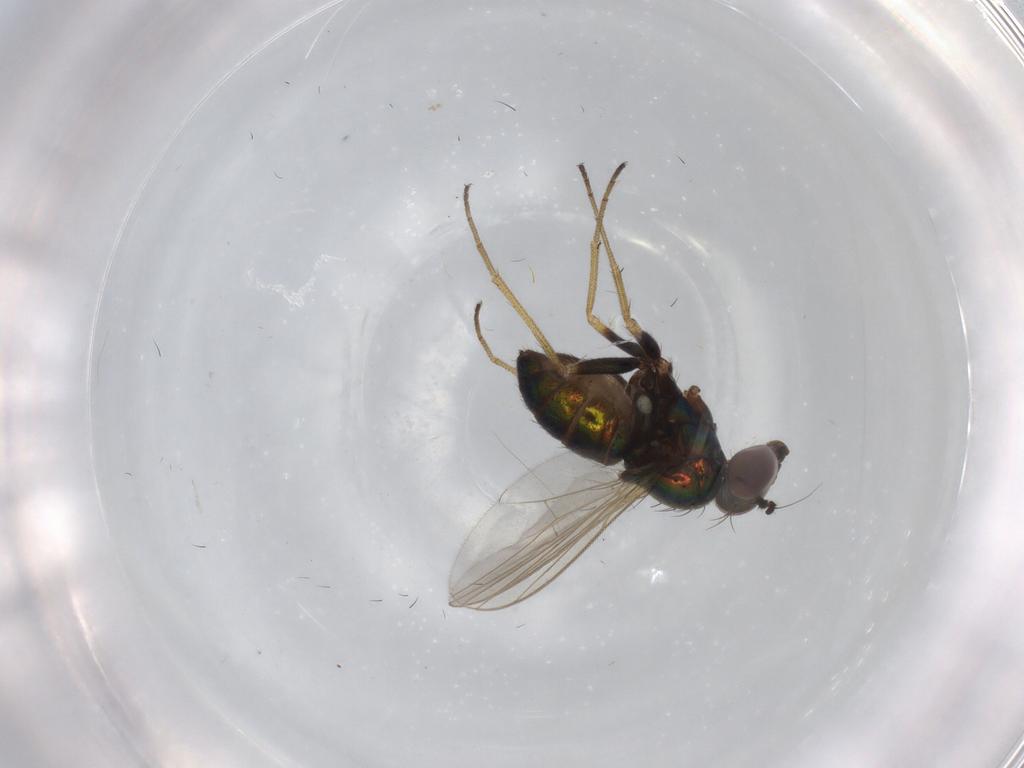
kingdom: Animalia
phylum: Arthropoda
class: Insecta
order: Diptera
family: Dolichopodidae
